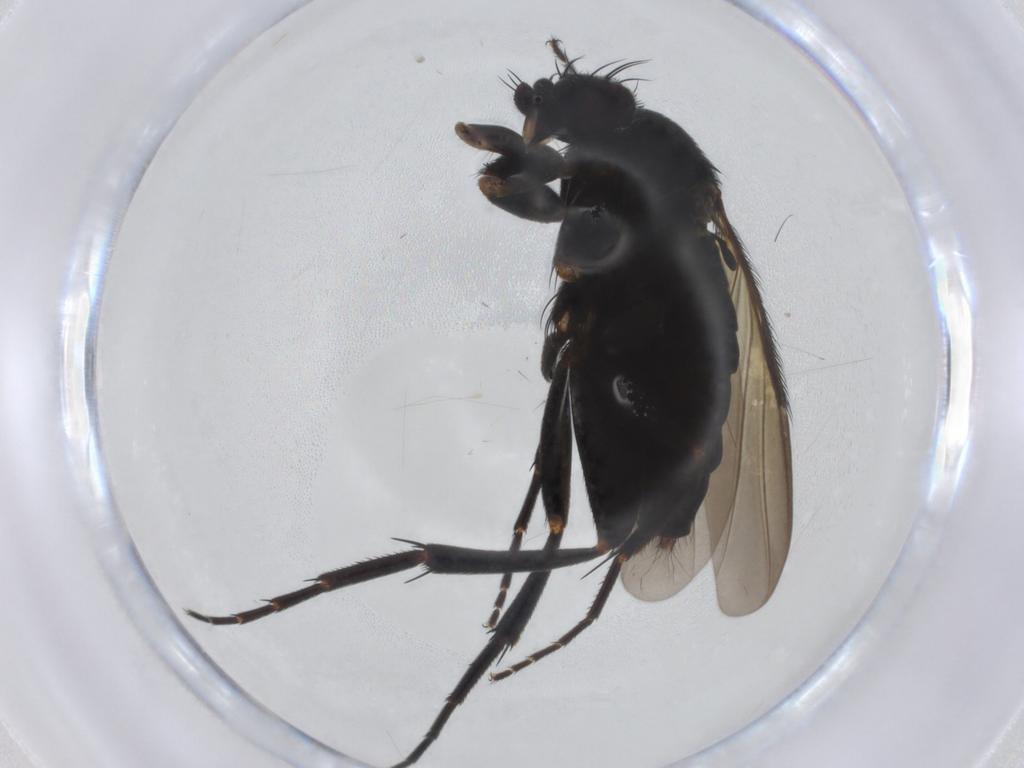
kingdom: Animalia
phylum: Arthropoda
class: Insecta
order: Diptera
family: Phoridae
